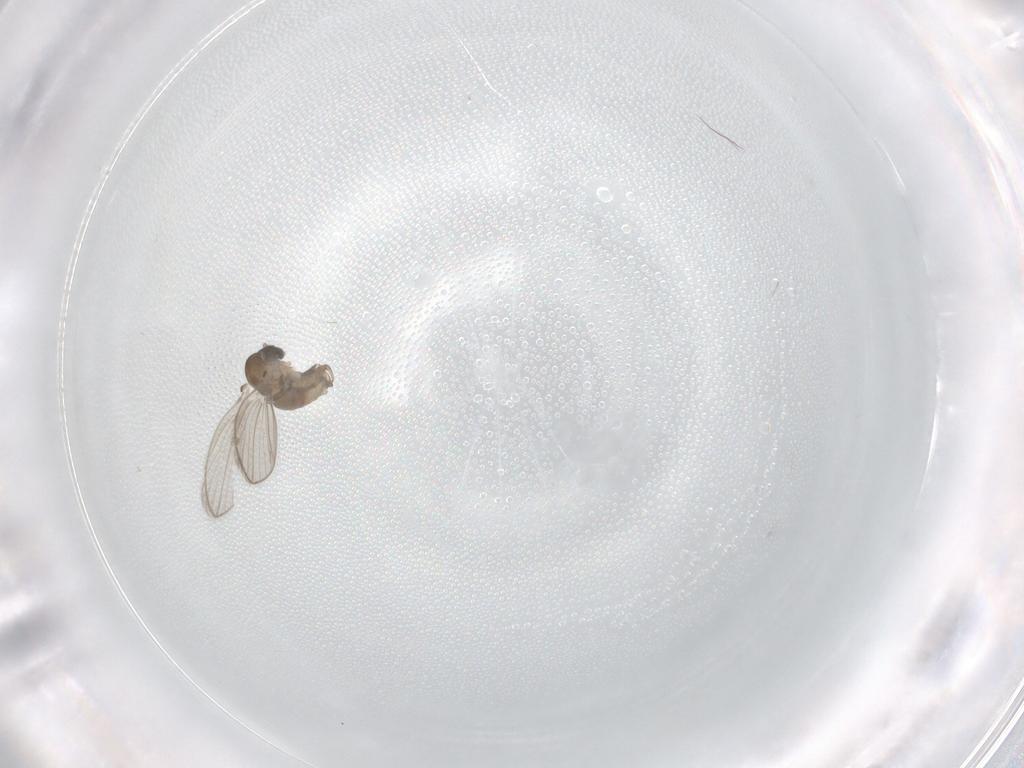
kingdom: Animalia
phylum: Arthropoda
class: Insecta
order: Diptera
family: Psychodidae
